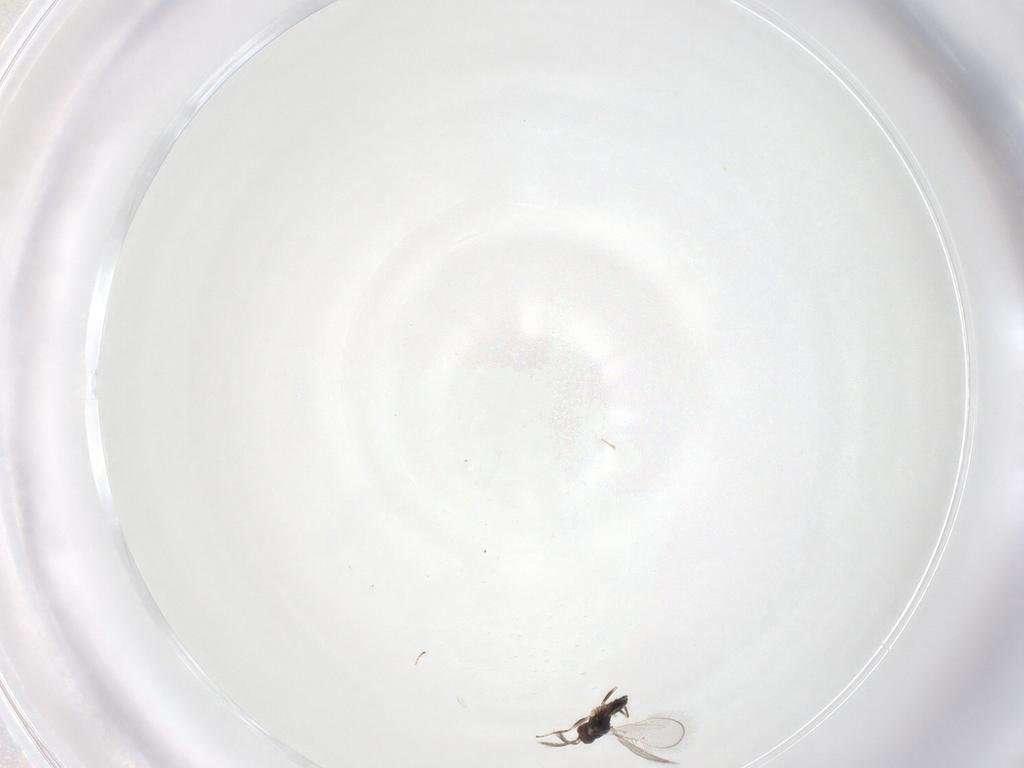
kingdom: Animalia
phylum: Arthropoda
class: Insecta
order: Hymenoptera
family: Eulophidae
